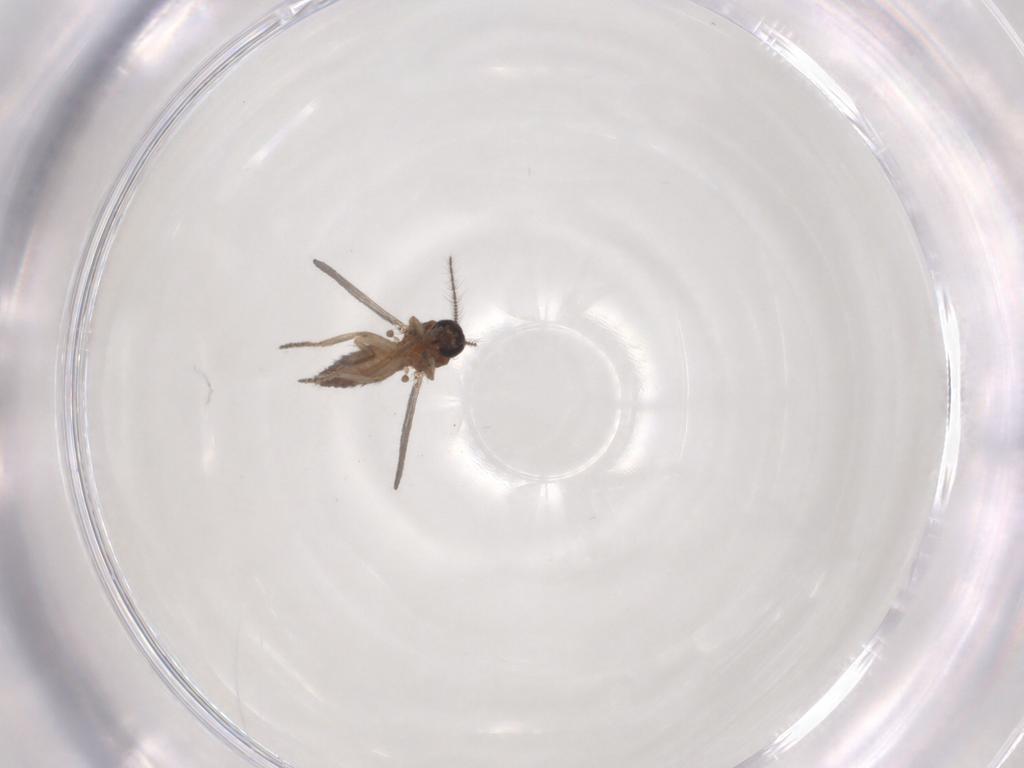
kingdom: Animalia
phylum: Arthropoda
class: Insecta
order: Diptera
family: Ceratopogonidae
